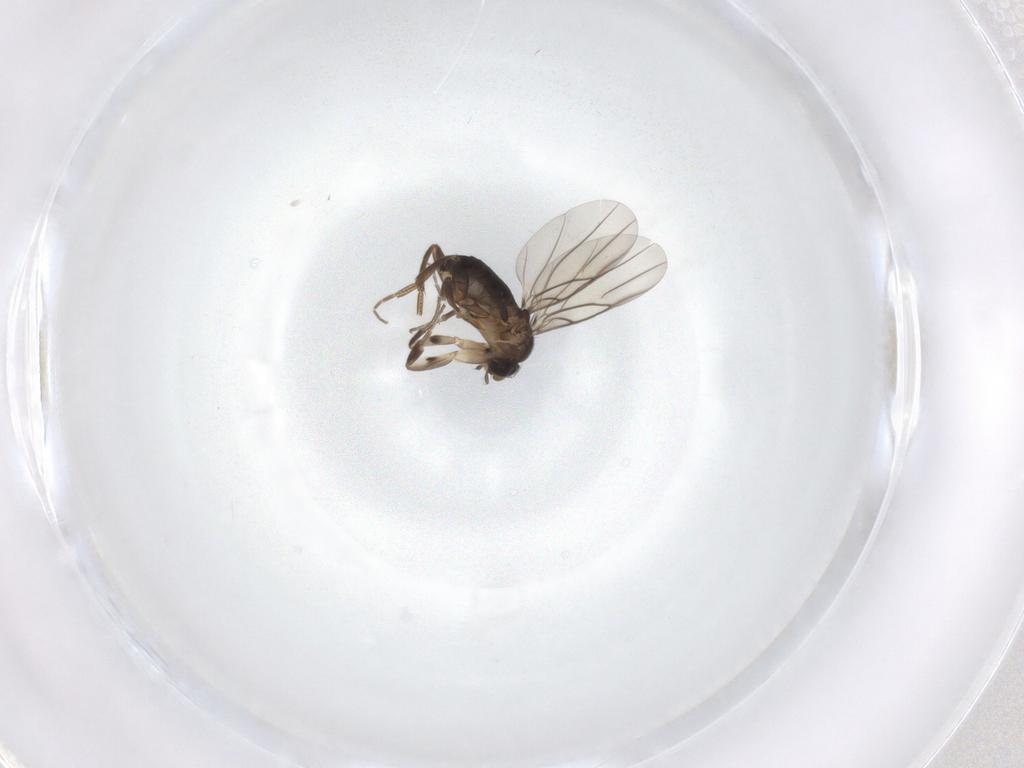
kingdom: Animalia
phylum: Arthropoda
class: Insecta
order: Diptera
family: Phoridae
